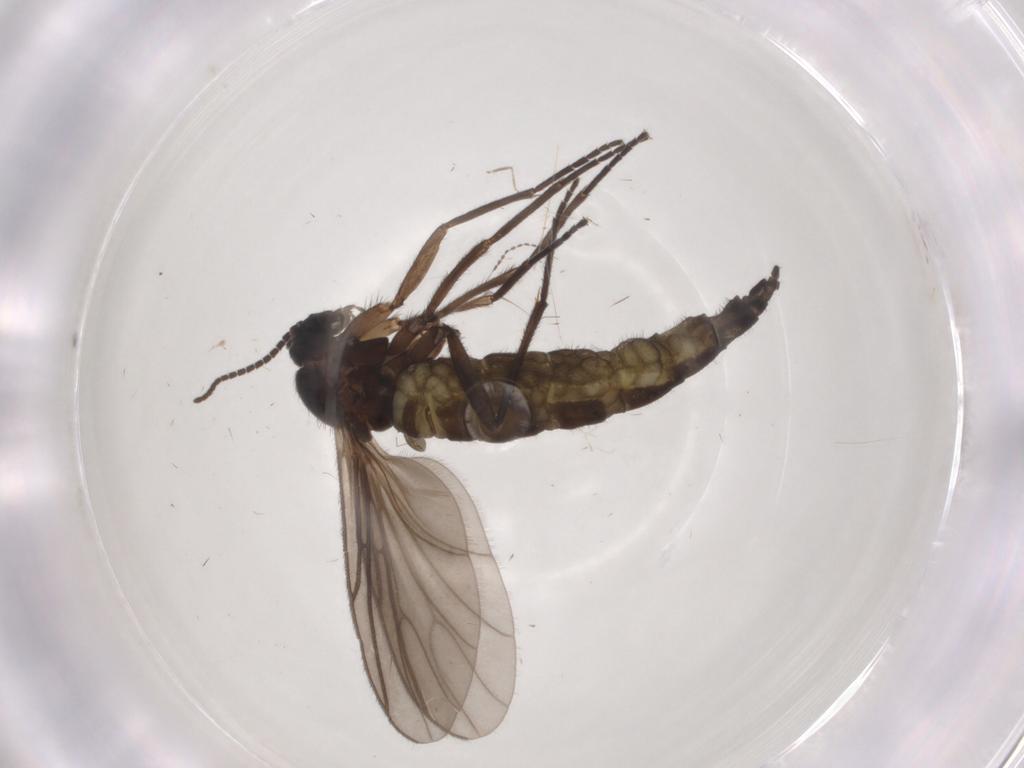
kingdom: Animalia
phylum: Arthropoda
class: Insecta
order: Diptera
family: Sciaridae
